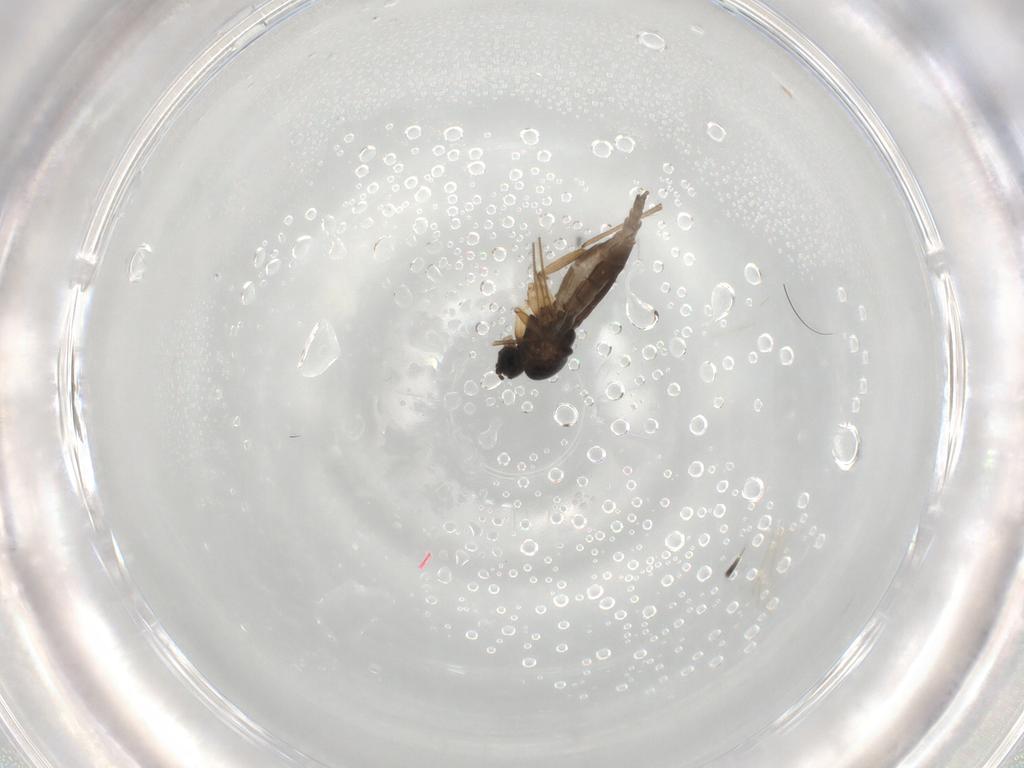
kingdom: Animalia
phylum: Arthropoda
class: Insecta
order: Diptera
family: Sciaridae
